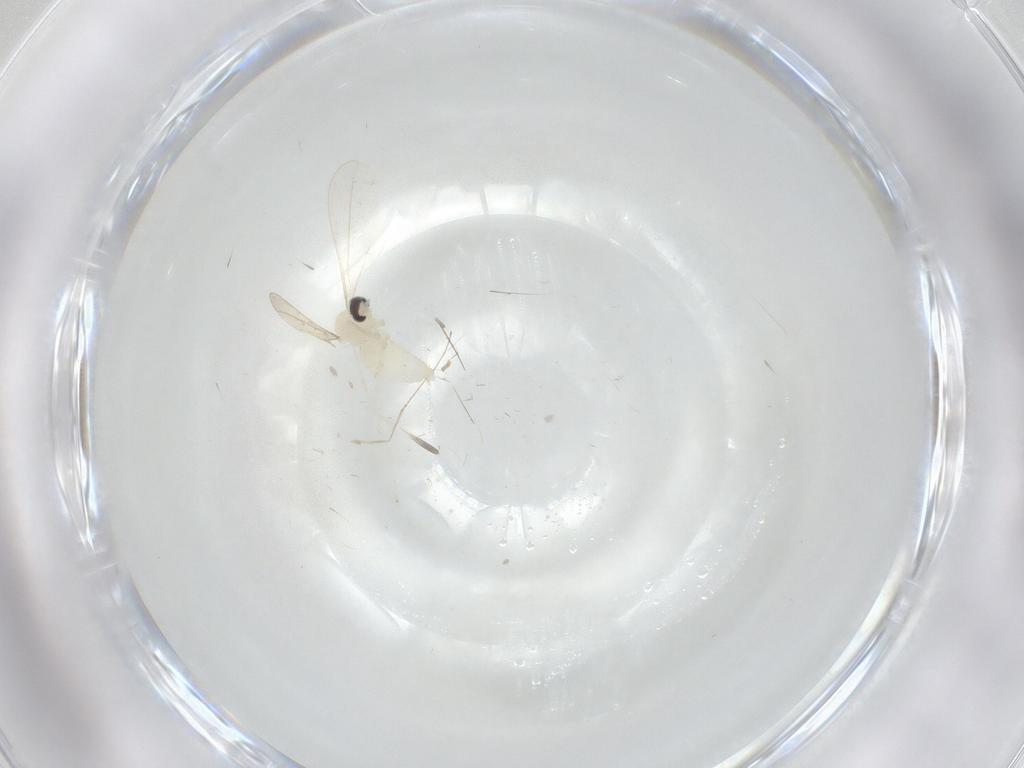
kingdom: Animalia
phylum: Arthropoda
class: Insecta
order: Diptera
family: Cecidomyiidae
